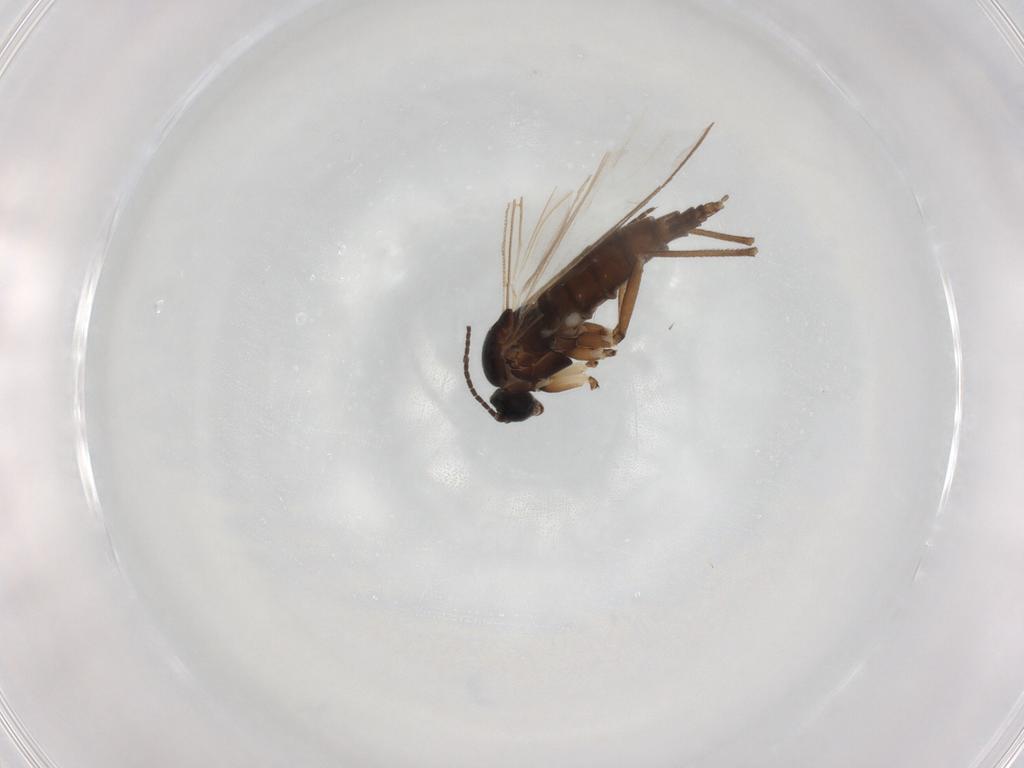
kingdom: Animalia
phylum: Arthropoda
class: Insecta
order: Diptera
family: Sciaridae
